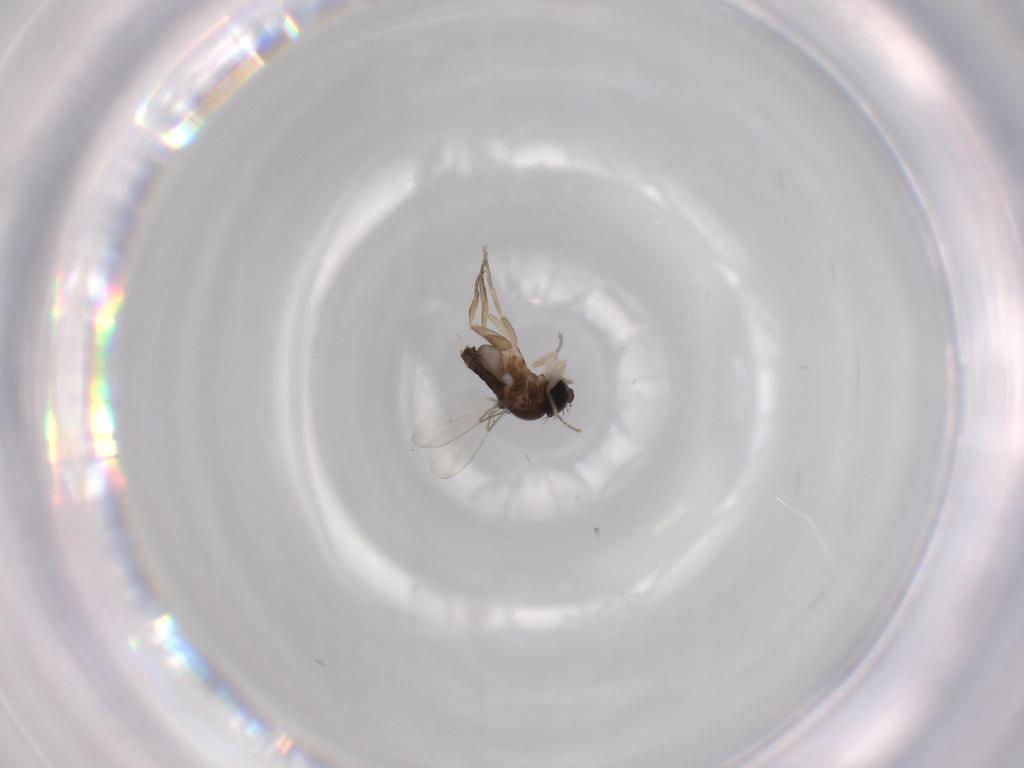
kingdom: Animalia
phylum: Arthropoda
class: Insecta
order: Diptera
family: Phoridae
